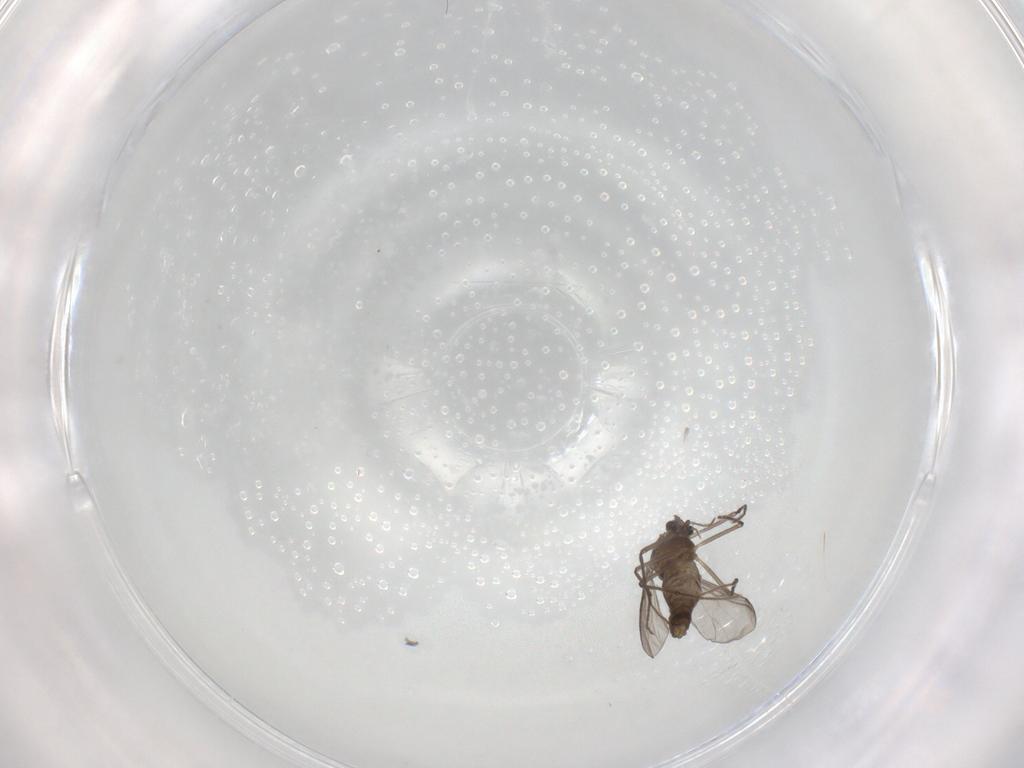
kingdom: Animalia
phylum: Arthropoda
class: Insecta
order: Diptera
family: Chironomidae
